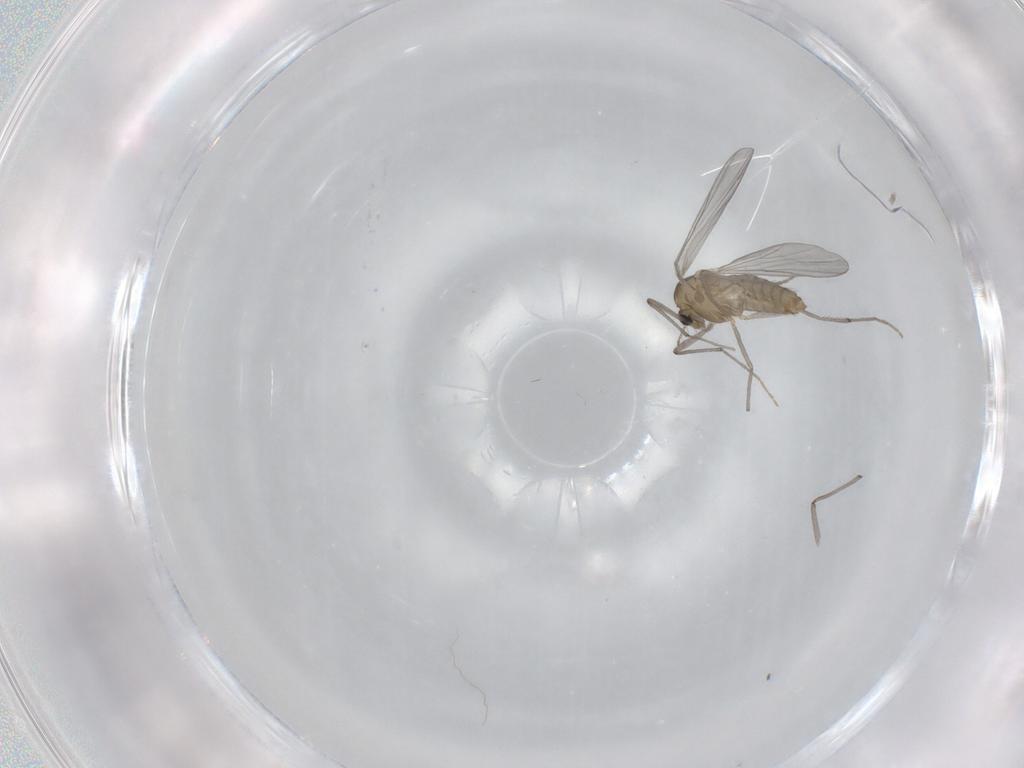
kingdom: Animalia
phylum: Arthropoda
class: Insecta
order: Diptera
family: Chironomidae
